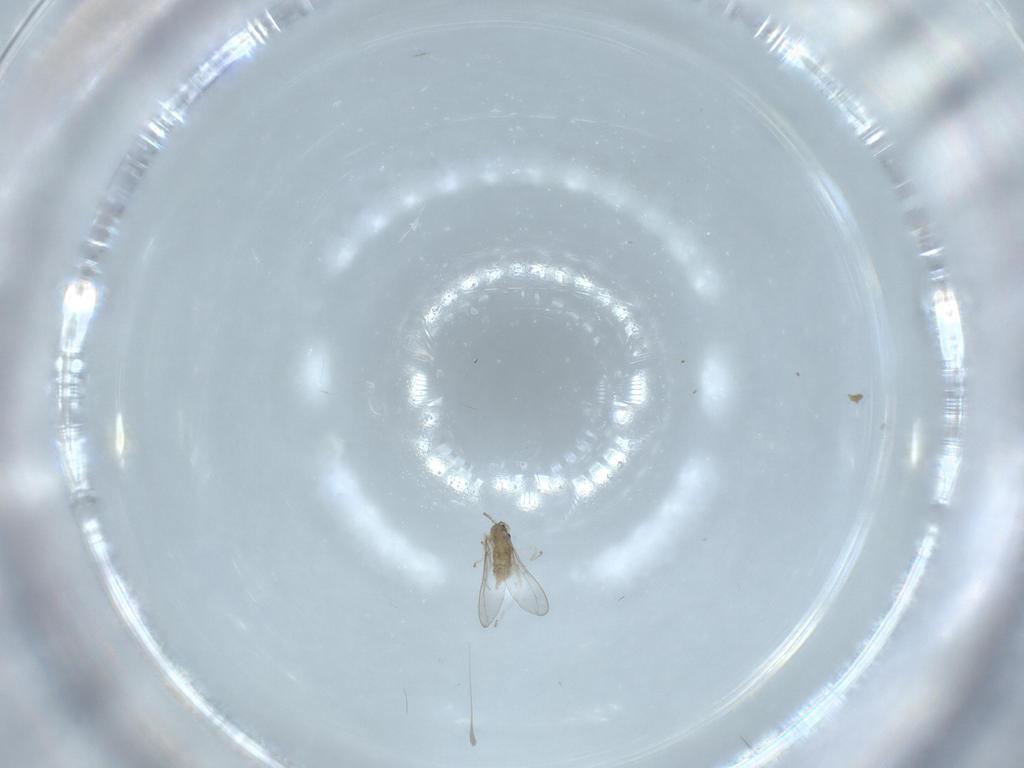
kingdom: Animalia
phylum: Arthropoda
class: Insecta
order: Diptera
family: Cecidomyiidae
